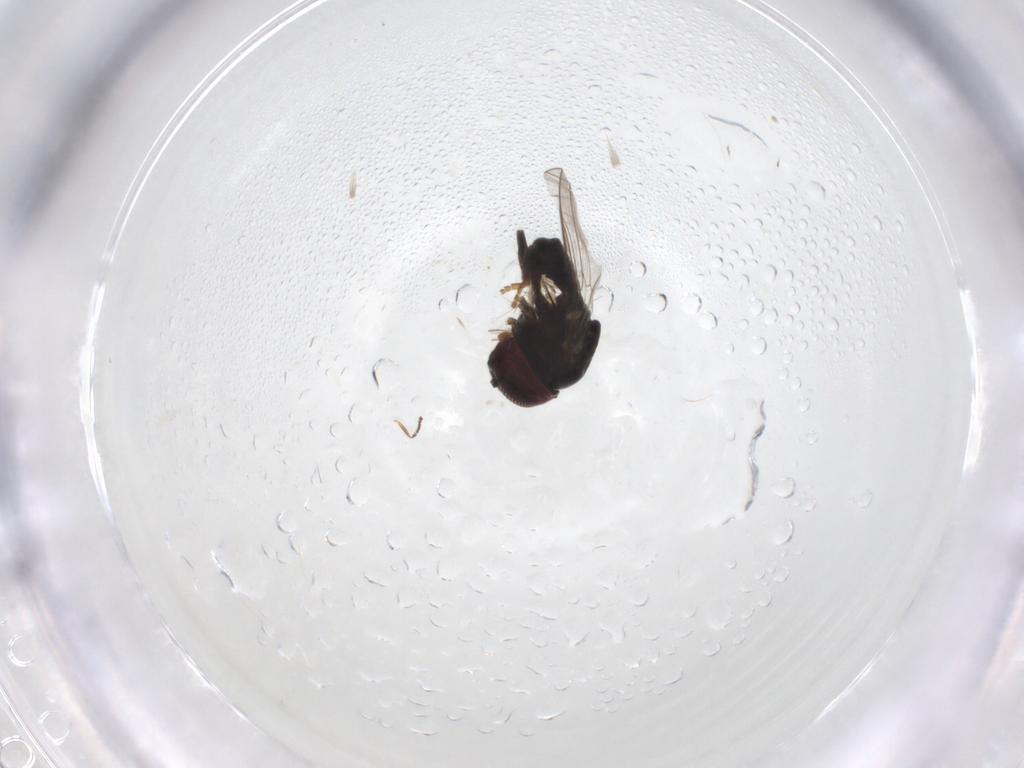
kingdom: Animalia
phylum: Arthropoda
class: Insecta
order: Diptera
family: Pipunculidae
